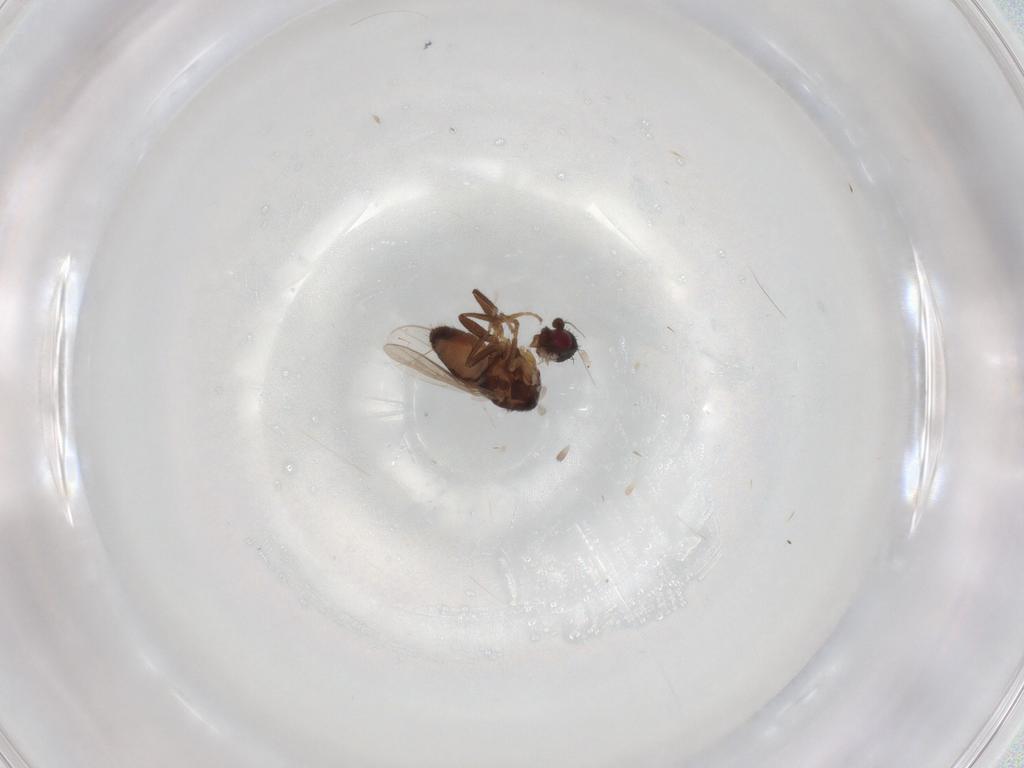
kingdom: Animalia
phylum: Arthropoda
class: Insecta
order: Diptera
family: Sphaeroceridae
